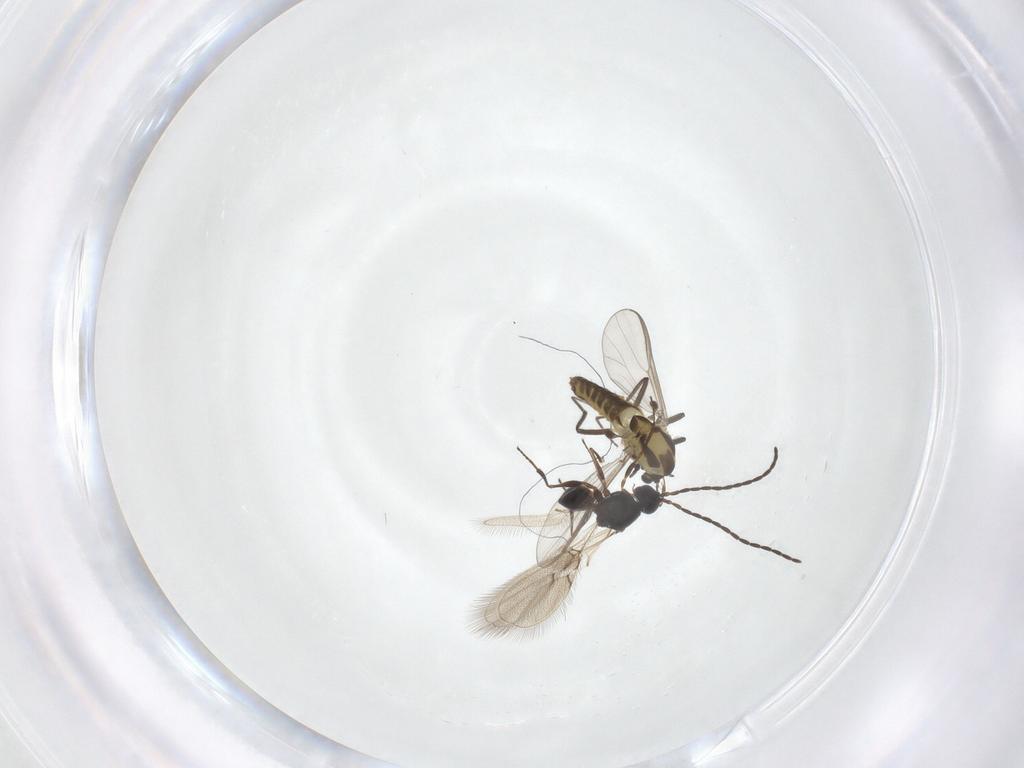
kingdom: Animalia
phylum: Arthropoda
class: Insecta
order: Diptera
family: Chironomidae
